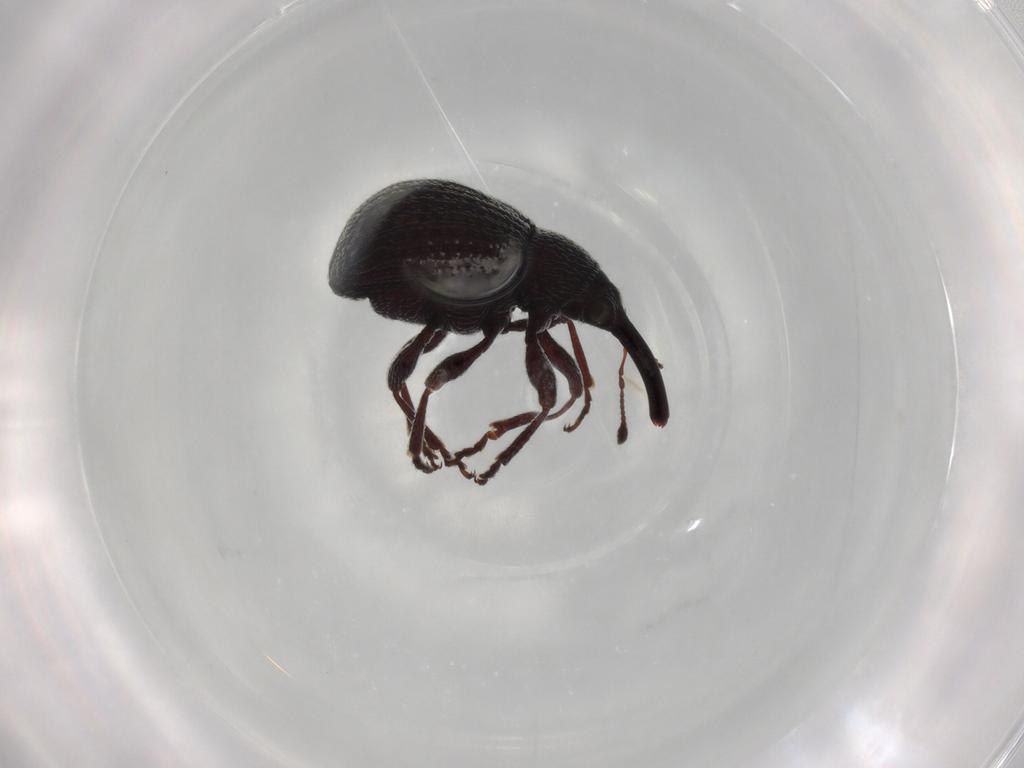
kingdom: Animalia
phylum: Arthropoda
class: Insecta
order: Coleoptera
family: Brentidae
